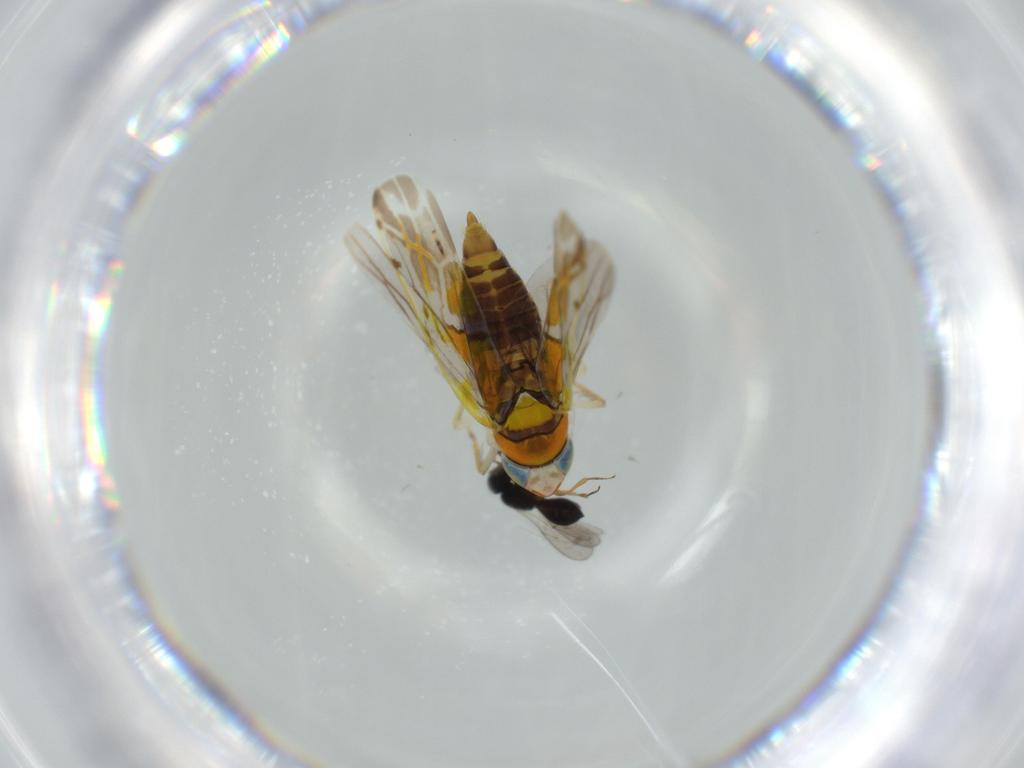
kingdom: Animalia
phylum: Arthropoda
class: Insecta
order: Hemiptera
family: Cicadellidae
